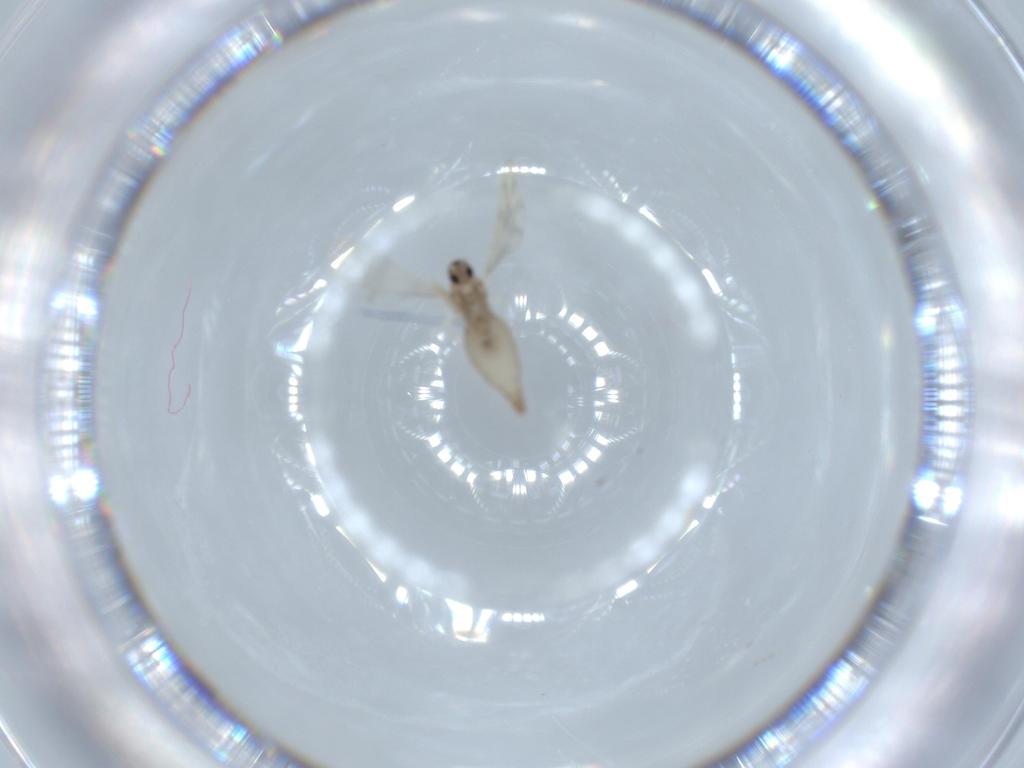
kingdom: Animalia
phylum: Arthropoda
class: Insecta
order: Diptera
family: Cecidomyiidae
